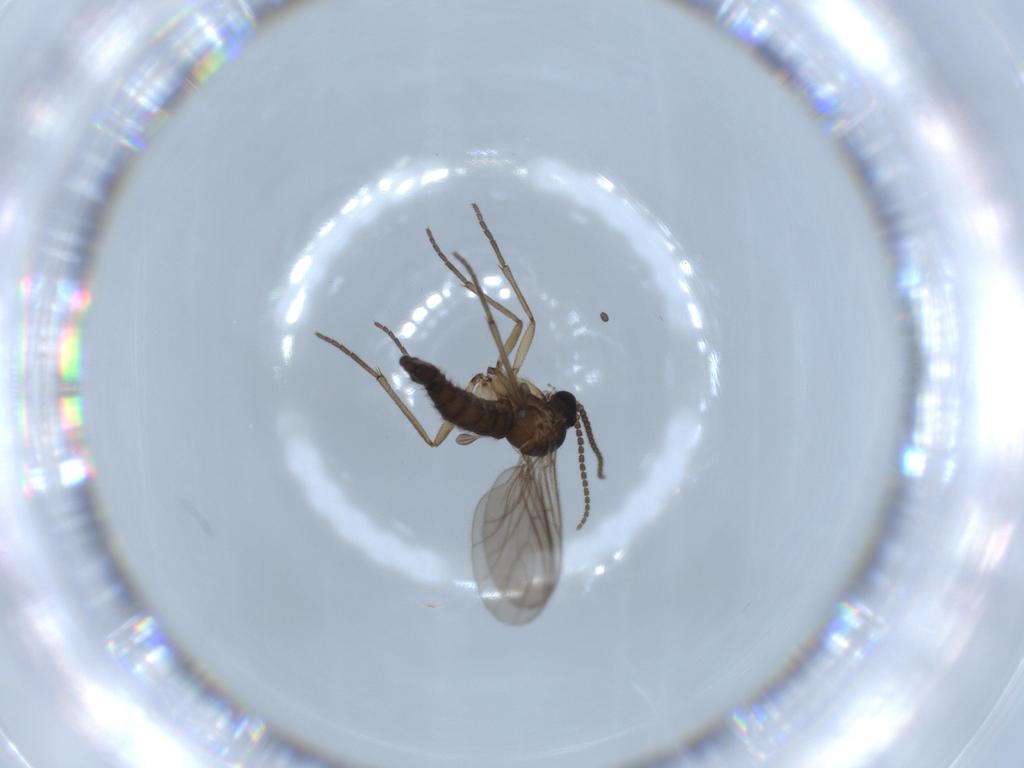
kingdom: Animalia
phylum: Arthropoda
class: Insecta
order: Diptera
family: Sciaridae
